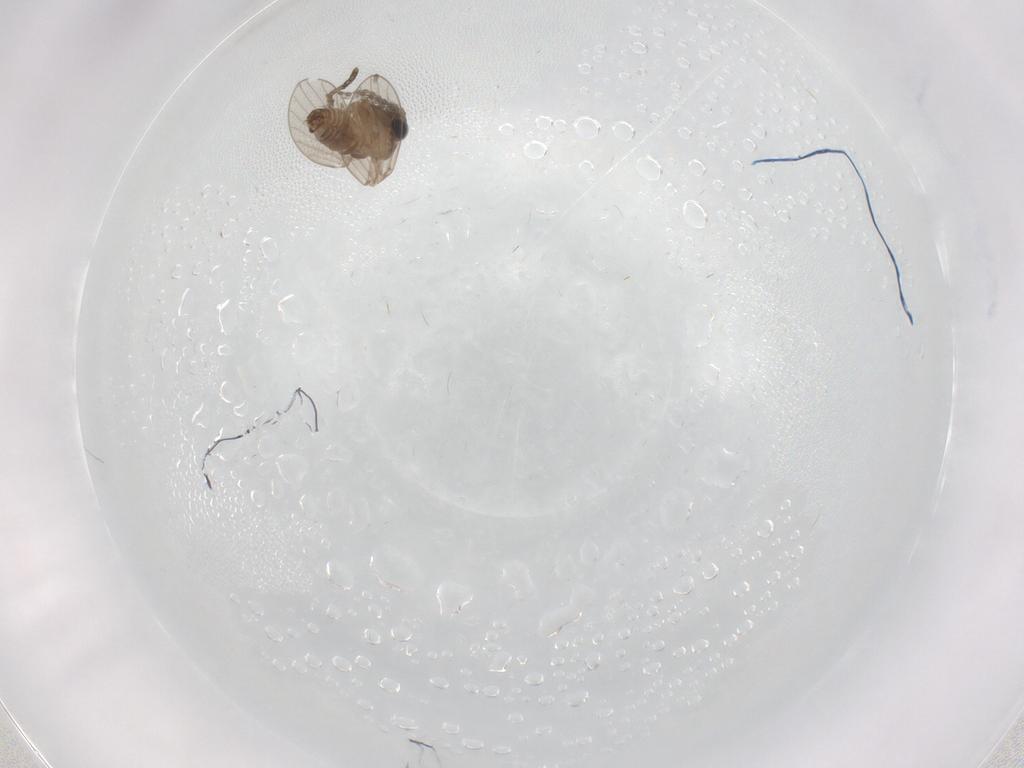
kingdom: Animalia
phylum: Arthropoda
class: Insecta
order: Diptera
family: Psychodidae
